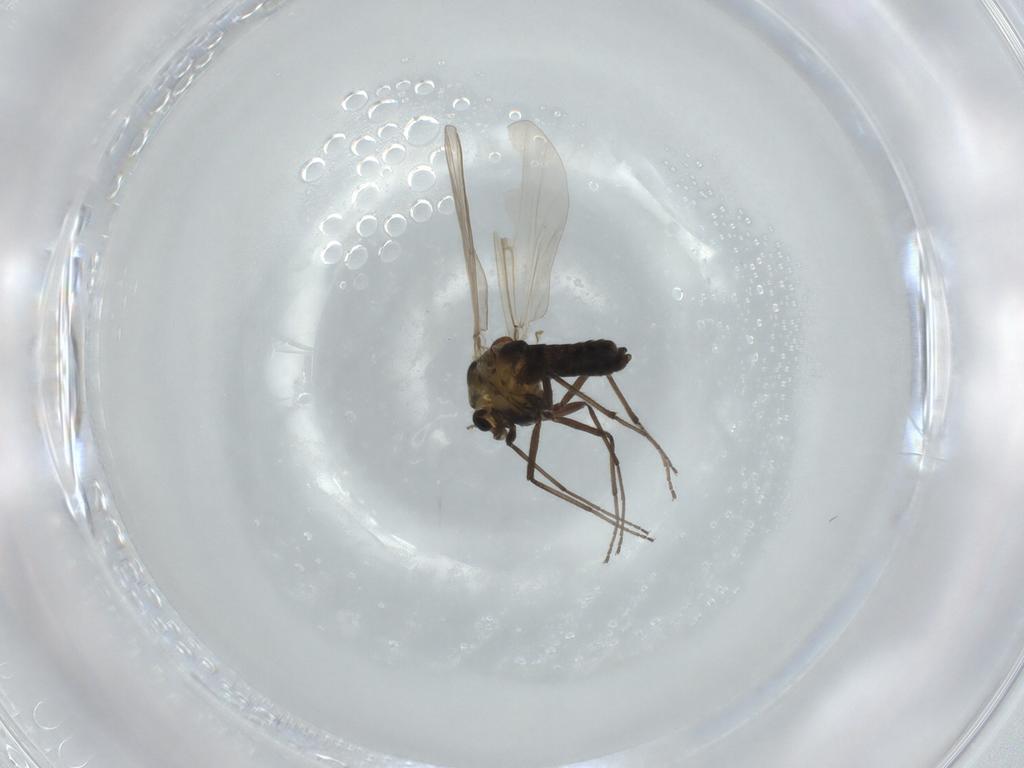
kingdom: Animalia
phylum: Arthropoda
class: Insecta
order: Diptera
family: Chironomidae
